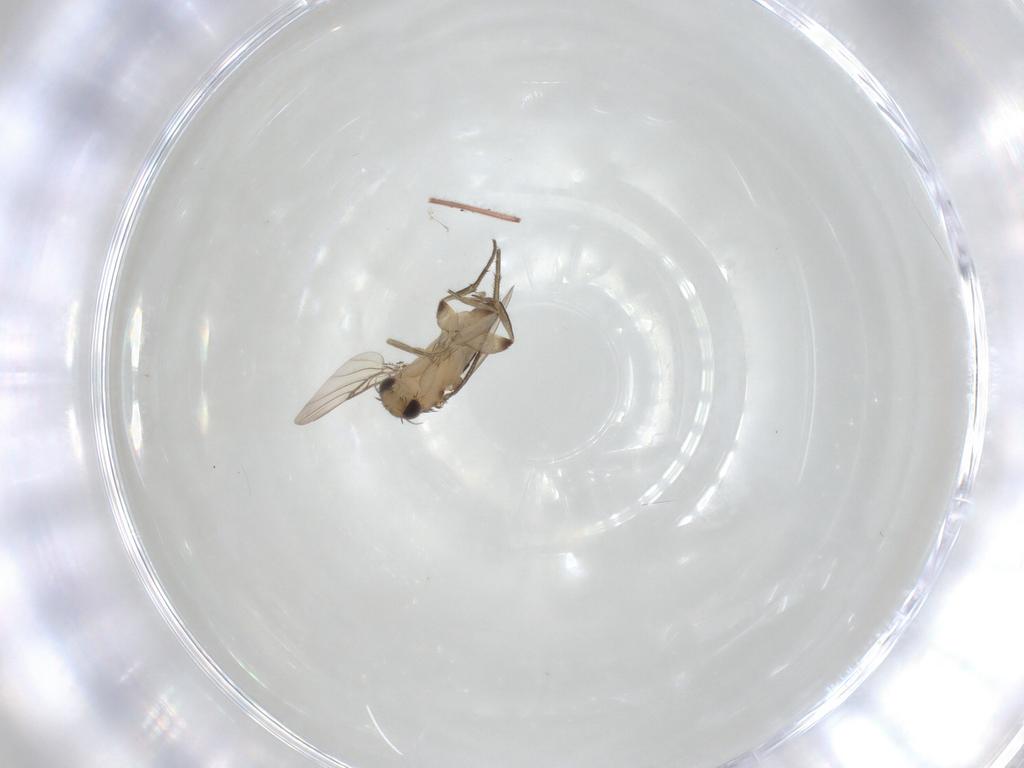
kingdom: Animalia
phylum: Arthropoda
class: Insecta
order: Diptera
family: Phoridae
